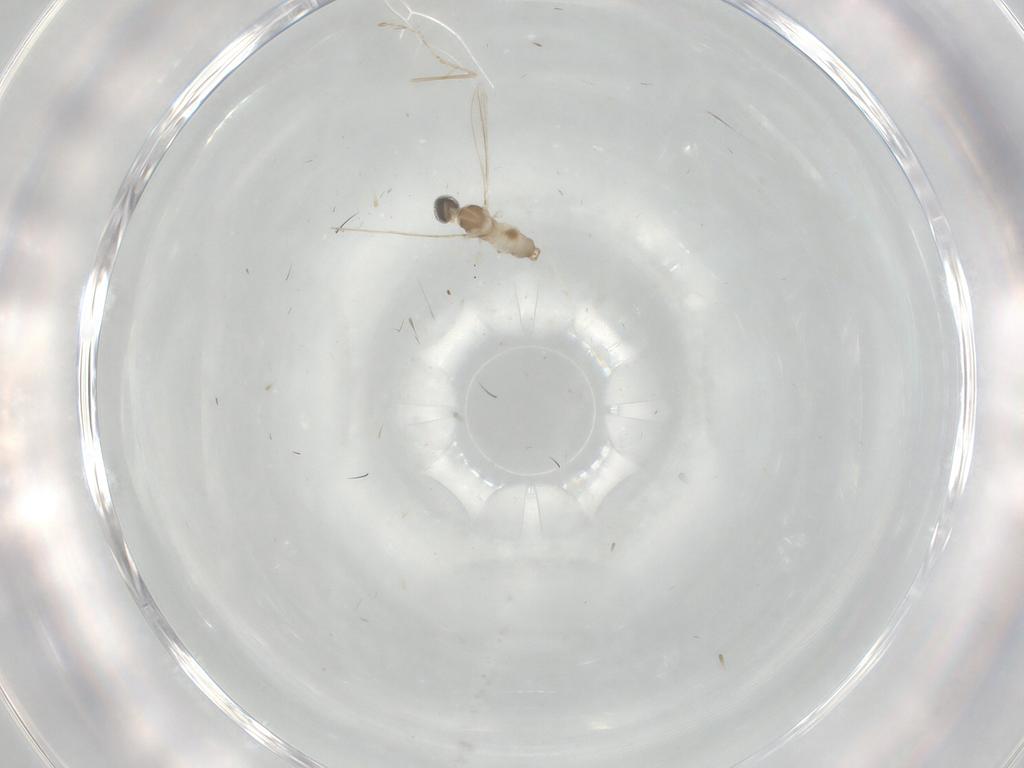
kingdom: Animalia
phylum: Arthropoda
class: Insecta
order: Diptera
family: Cecidomyiidae
